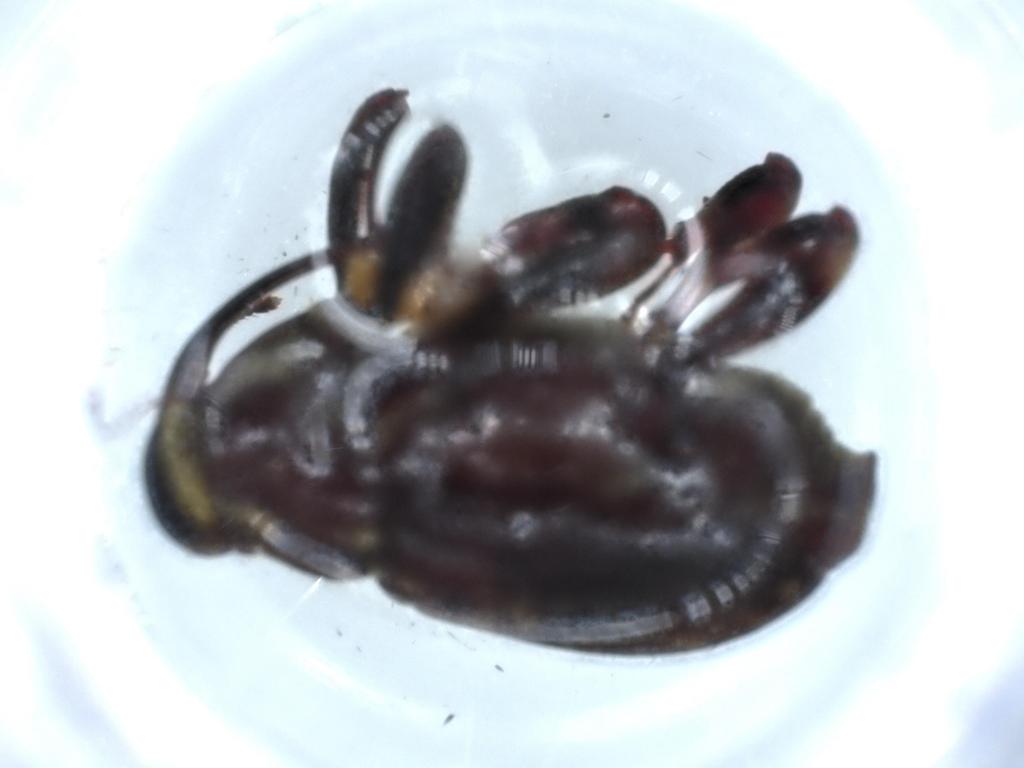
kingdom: Animalia
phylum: Arthropoda
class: Insecta
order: Coleoptera
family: Curculionidae
